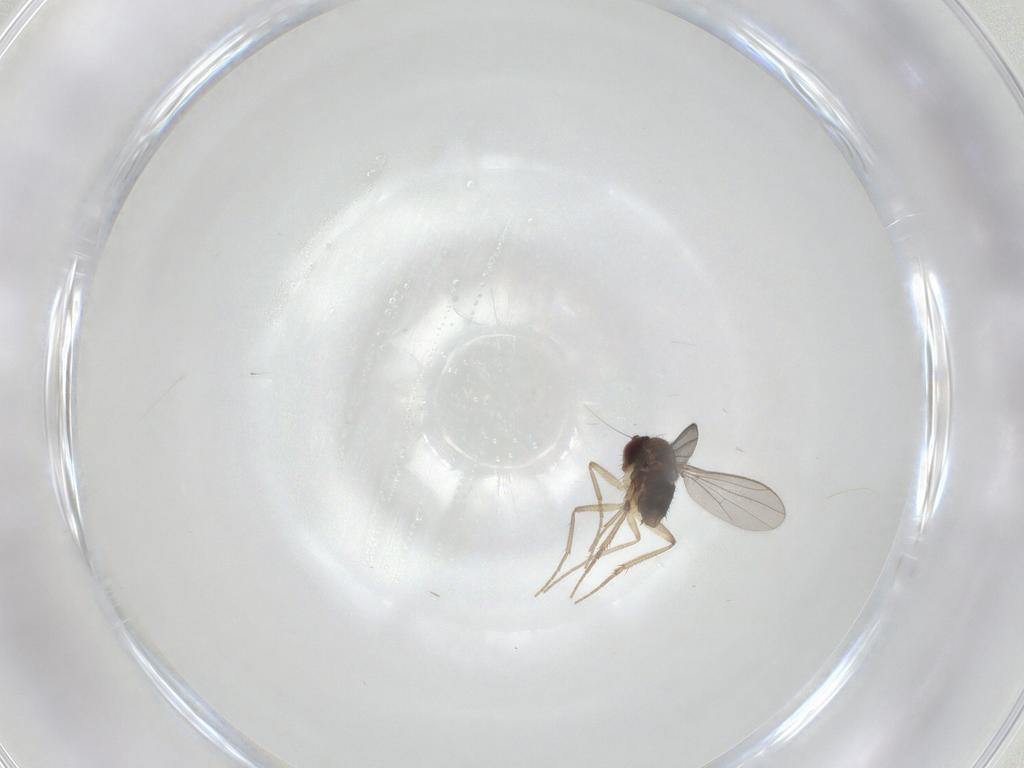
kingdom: Animalia
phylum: Arthropoda
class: Insecta
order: Diptera
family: Dolichopodidae
